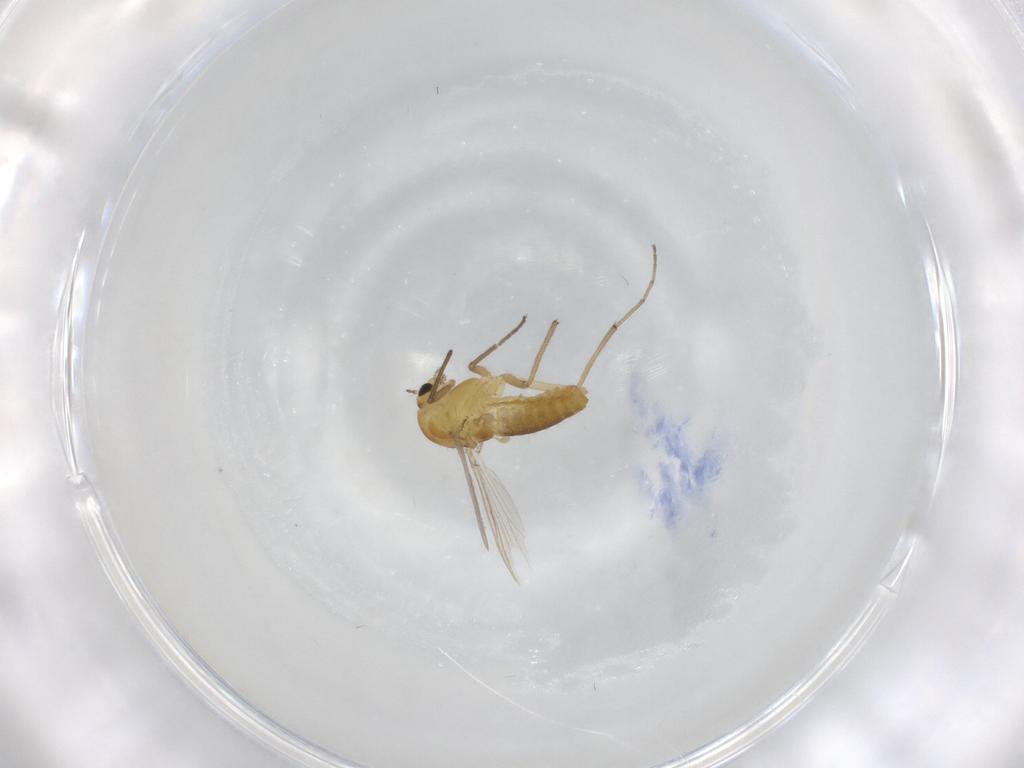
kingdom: Animalia
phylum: Arthropoda
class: Insecta
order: Diptera
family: Chironomidae
